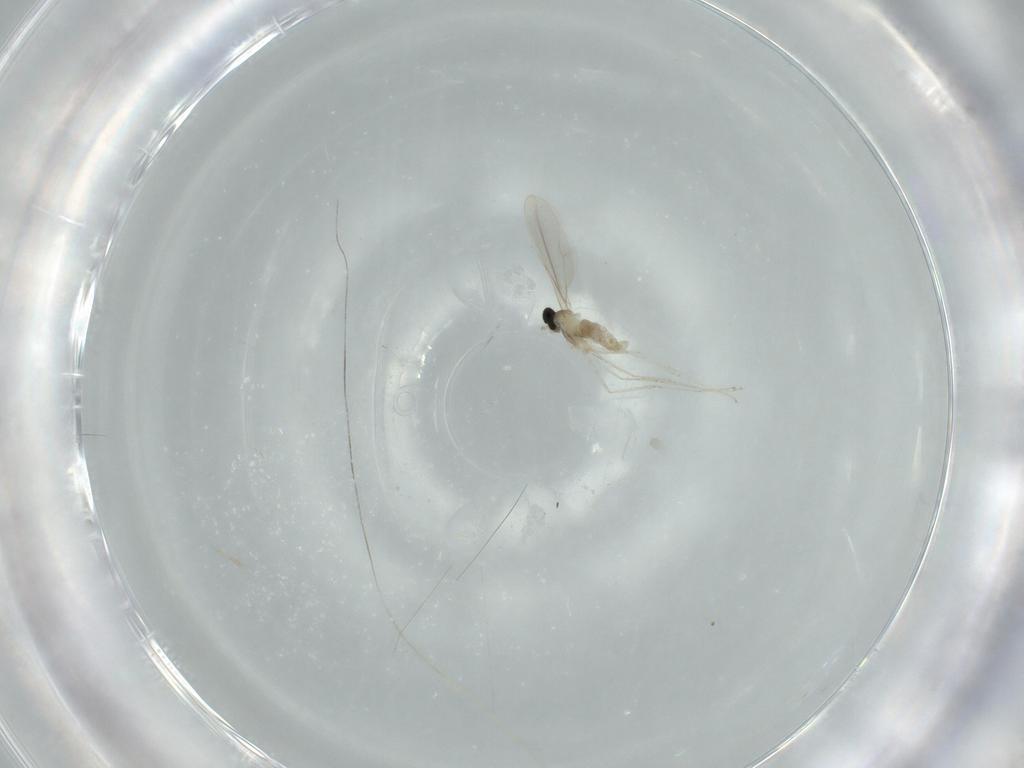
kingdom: Animalia
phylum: Arthropoda
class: Insecta
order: Diptera
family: Cecidomyiidae
